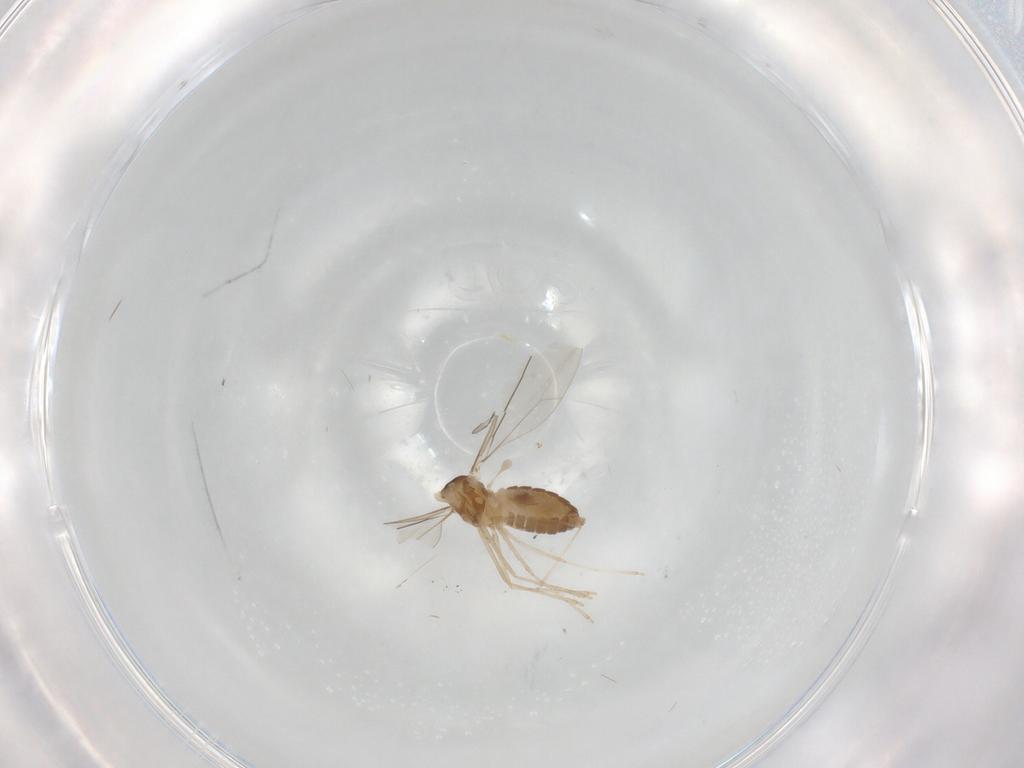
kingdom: Animalia
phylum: Arthropoda
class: Insecta
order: Diptera
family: Cecidomyiidae
